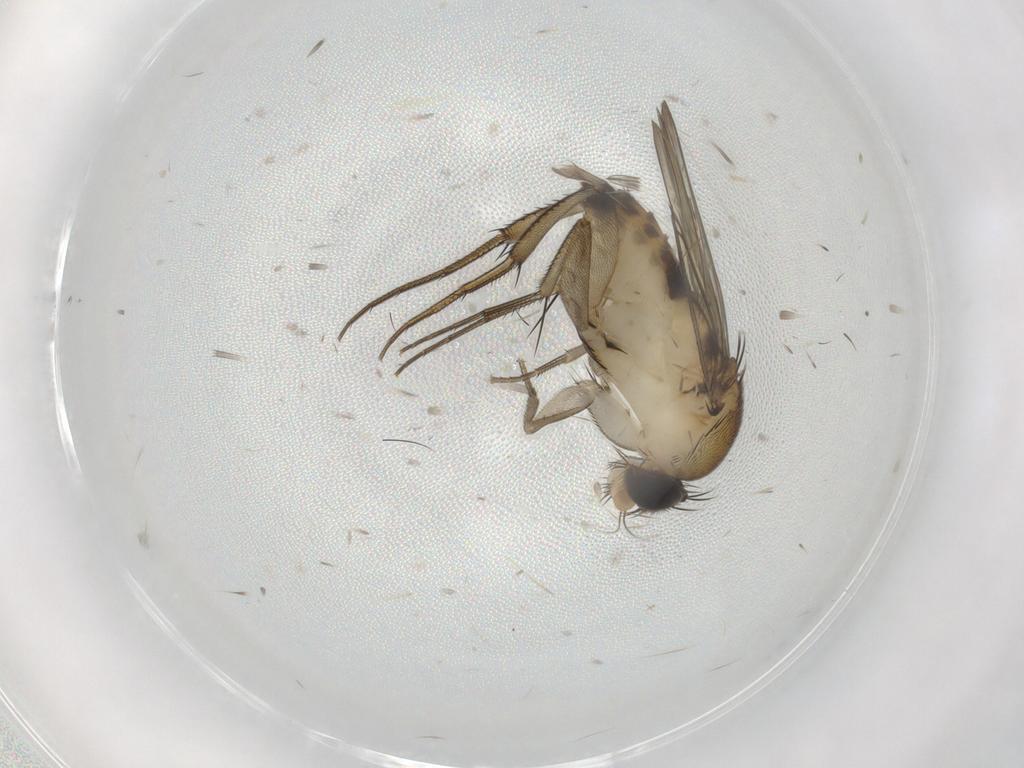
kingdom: Animalia
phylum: Arthropoda
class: Insecta
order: Diptera
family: Phoridae
